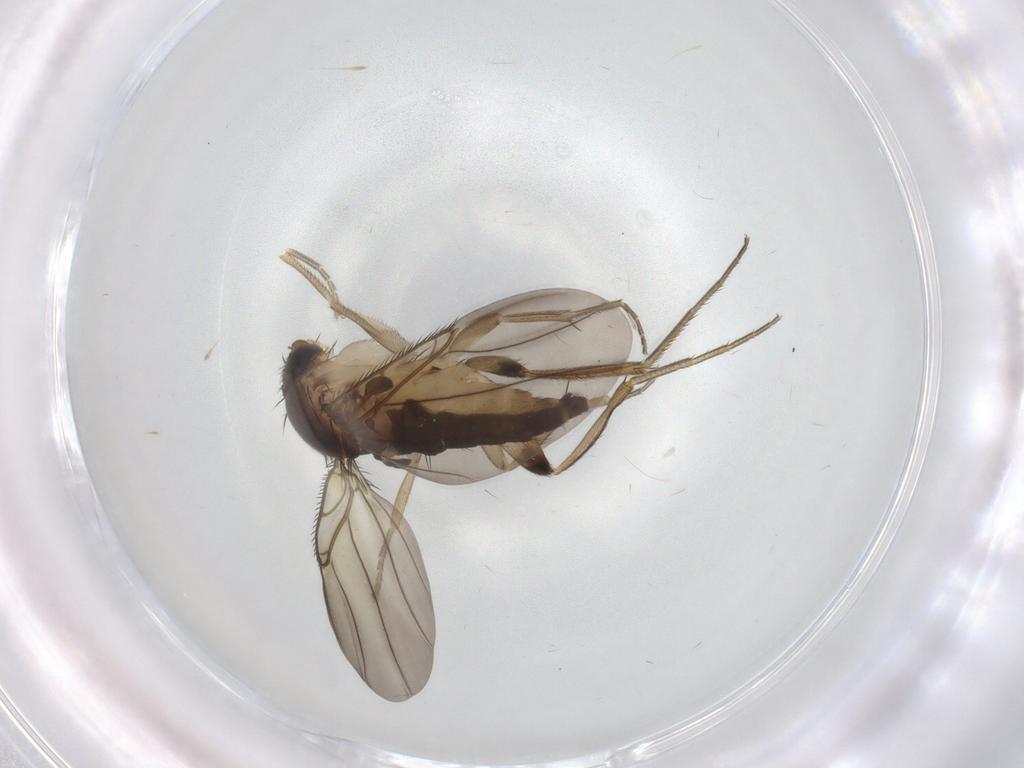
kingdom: Animalia
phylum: Arthropoda
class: Insecta
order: Diptera
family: Phoridae
